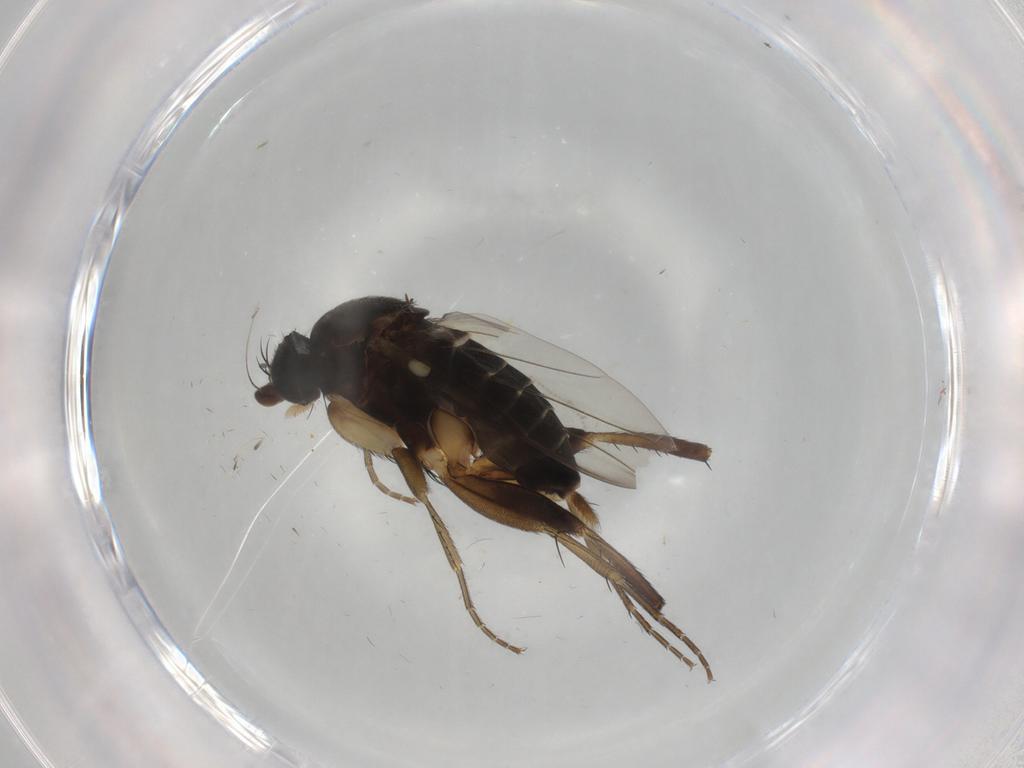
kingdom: Animalia
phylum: Arthropoda
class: Insecta
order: Diptera
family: Phoridae
